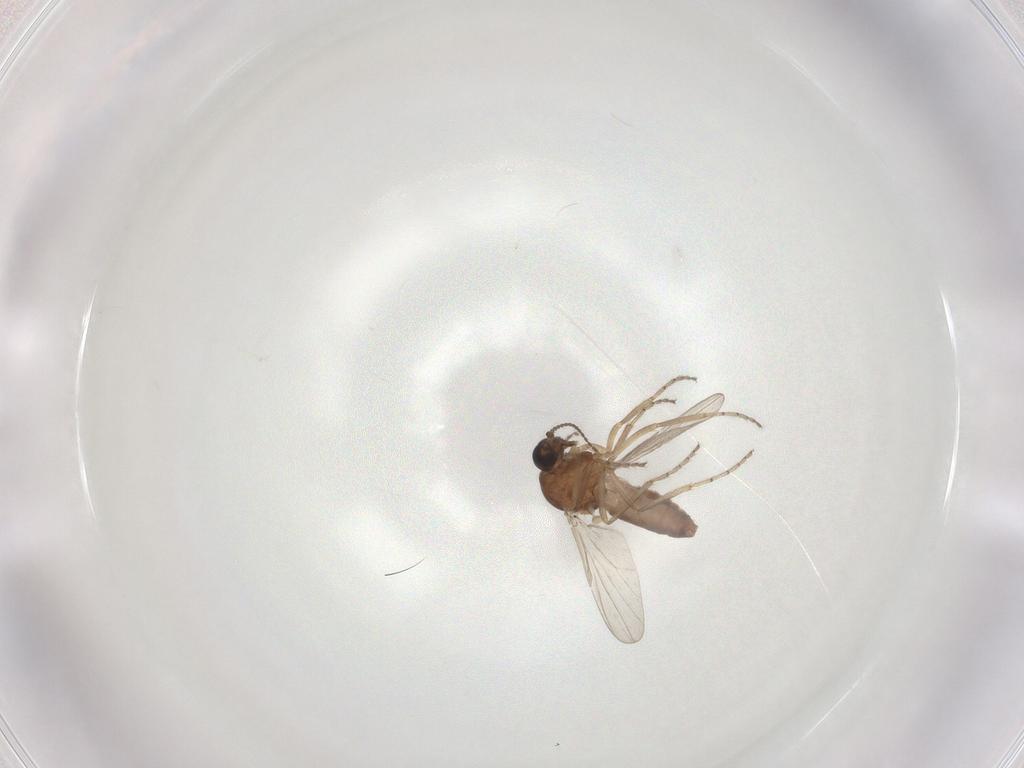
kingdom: Animalia
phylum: Arthropoda
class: Insecta
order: Diptera
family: Ceratopogonidae
